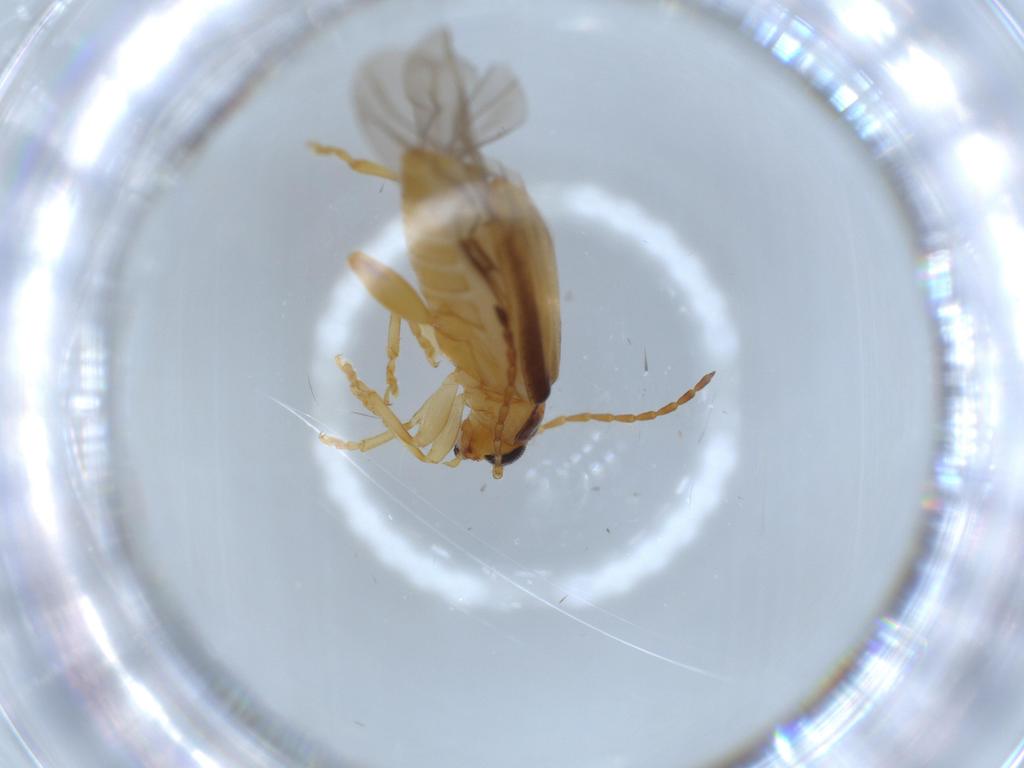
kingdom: Animalia
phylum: Arthropoda
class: Insecta
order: Coleoptera
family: Chrysomelidae
